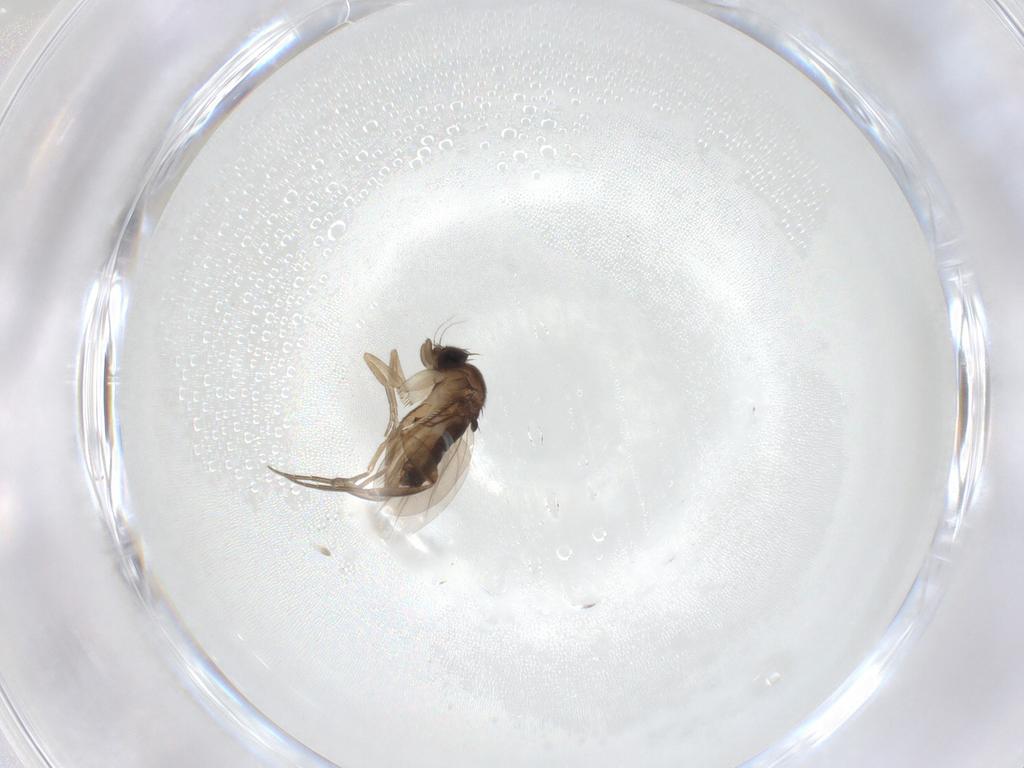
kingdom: Animalia
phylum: Arthropoda
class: Insecta
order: Diptera
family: Phoridae
